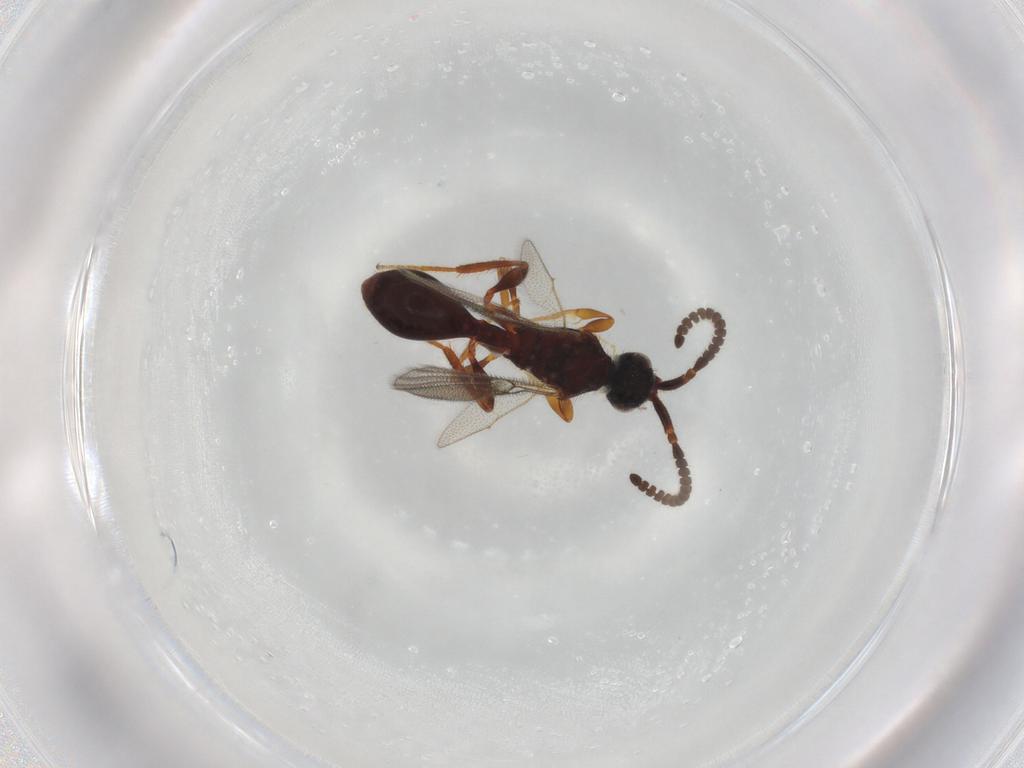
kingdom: Animalia
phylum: Arthropoda
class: Insecta
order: Hymenoptera
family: Diapriidae
